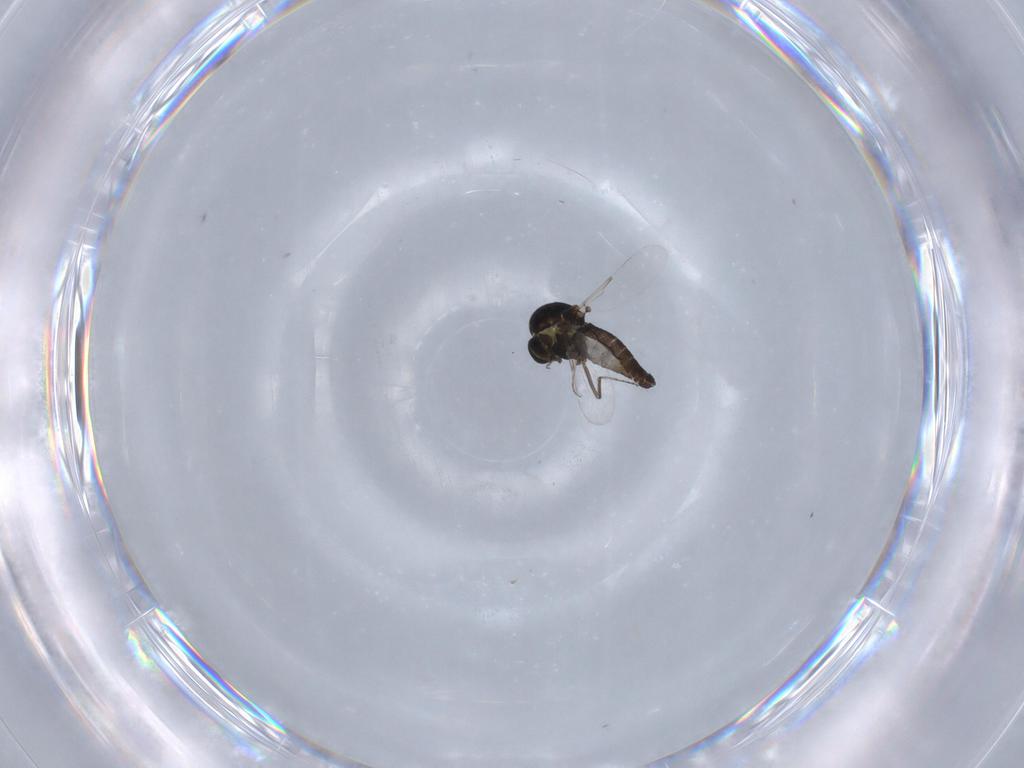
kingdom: Animalia
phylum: Arthropoda
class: Insecta
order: Diptera
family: Ceratopogonidae
